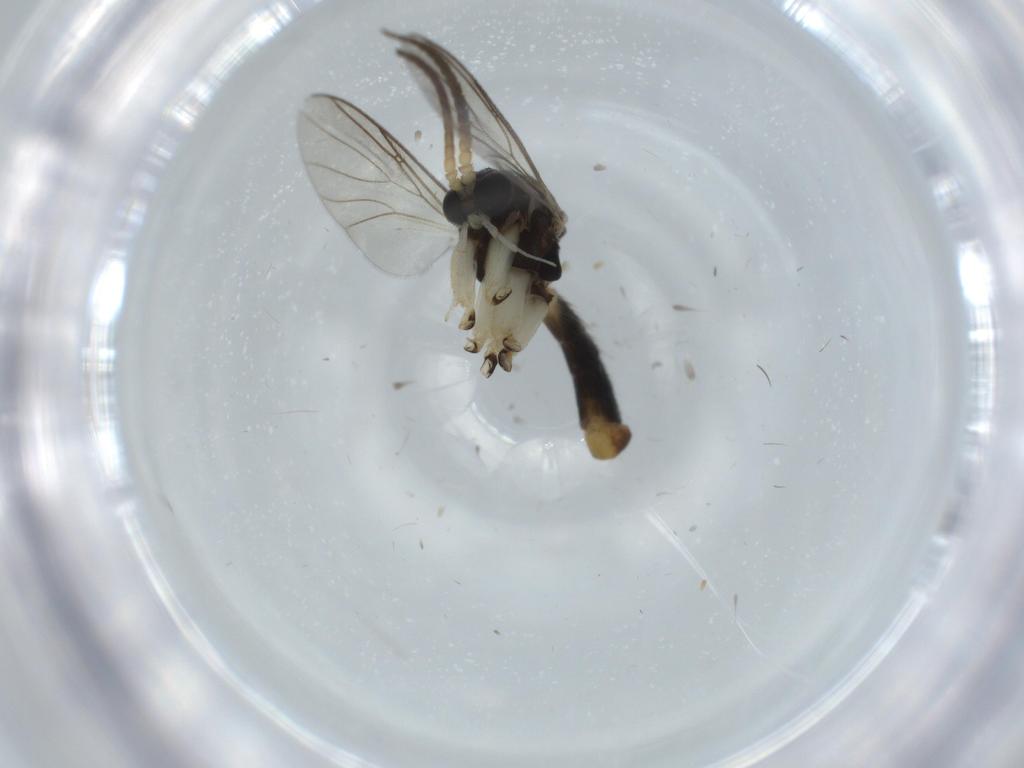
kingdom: Animalia
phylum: Arthropoda
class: Insecta
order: Diptera
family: Mycetophilidae
